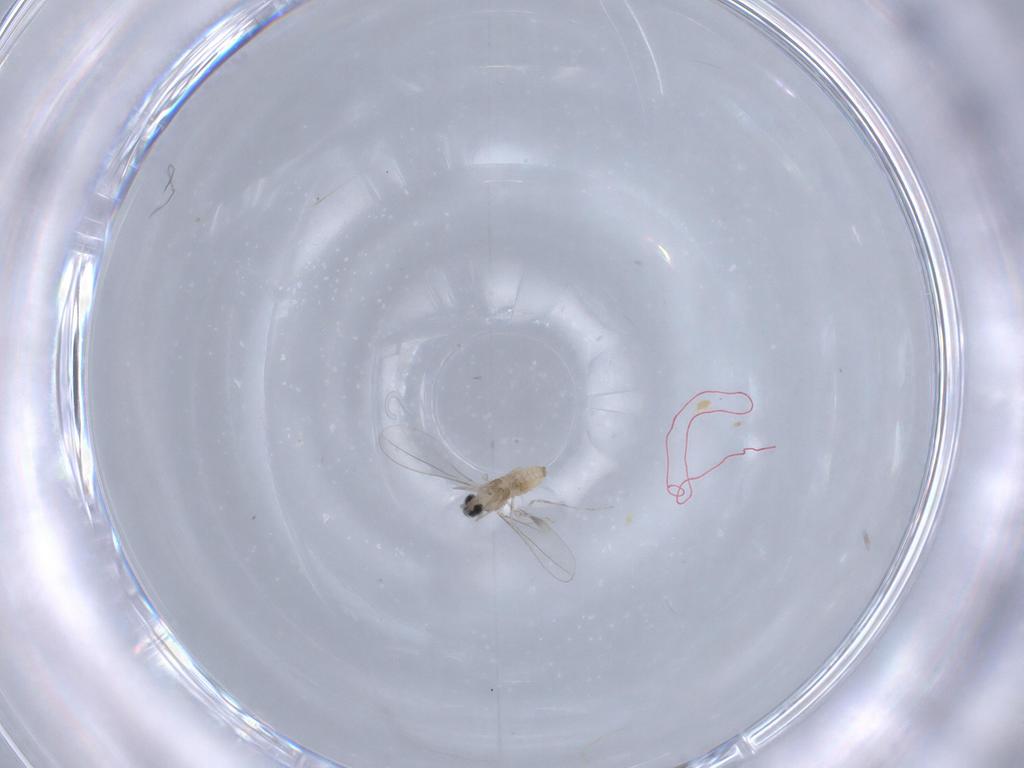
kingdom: Animalia
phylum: Arthropoda
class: Insecta
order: Diptera
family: Cecidomyiidae
